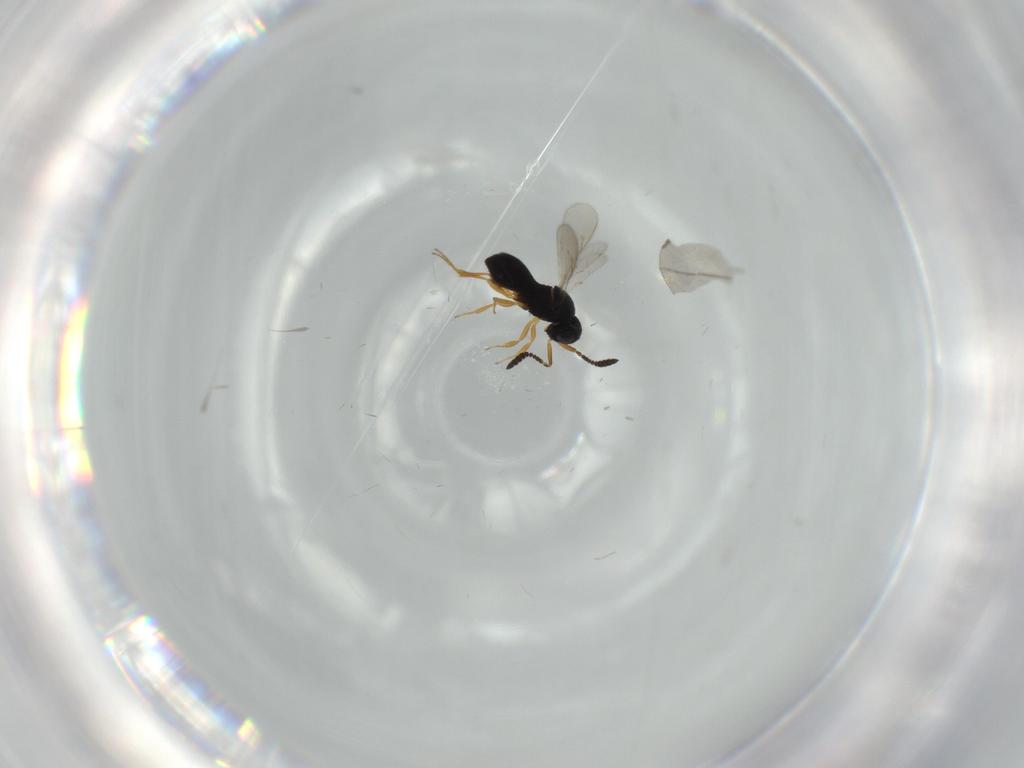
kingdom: Animalia
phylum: Arthropoda
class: Insecta
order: Hymenoptera
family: Scelionidae
